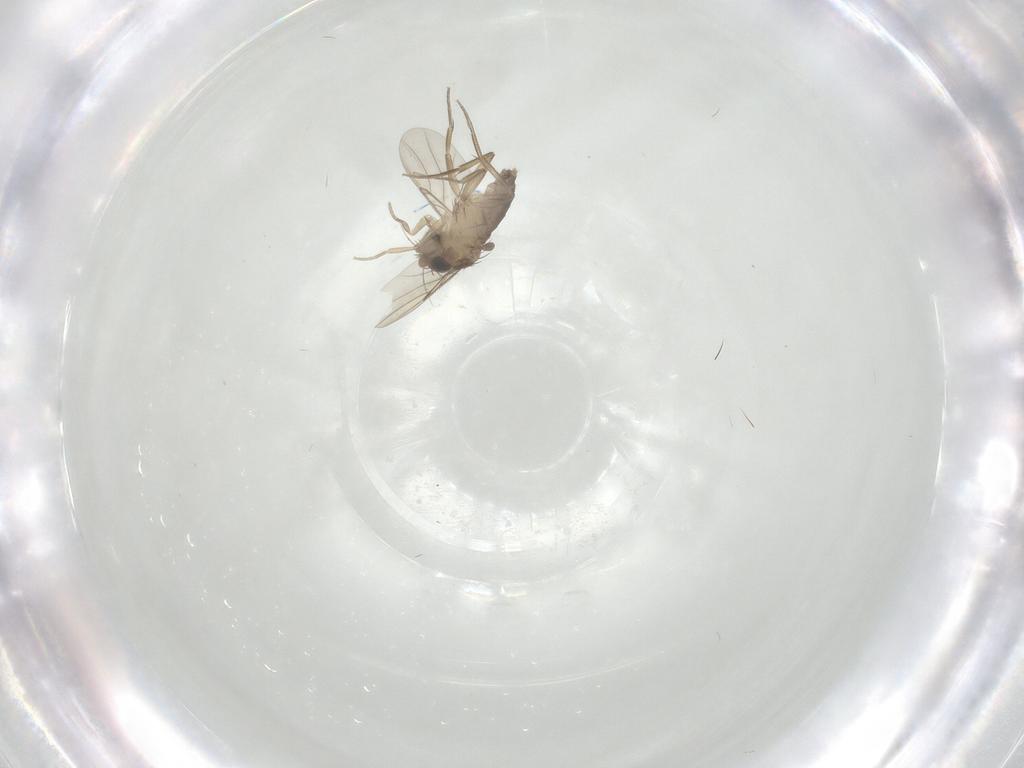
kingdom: Animalia
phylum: Arthropoda
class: Insecta
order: Diptera
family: Phoridae
